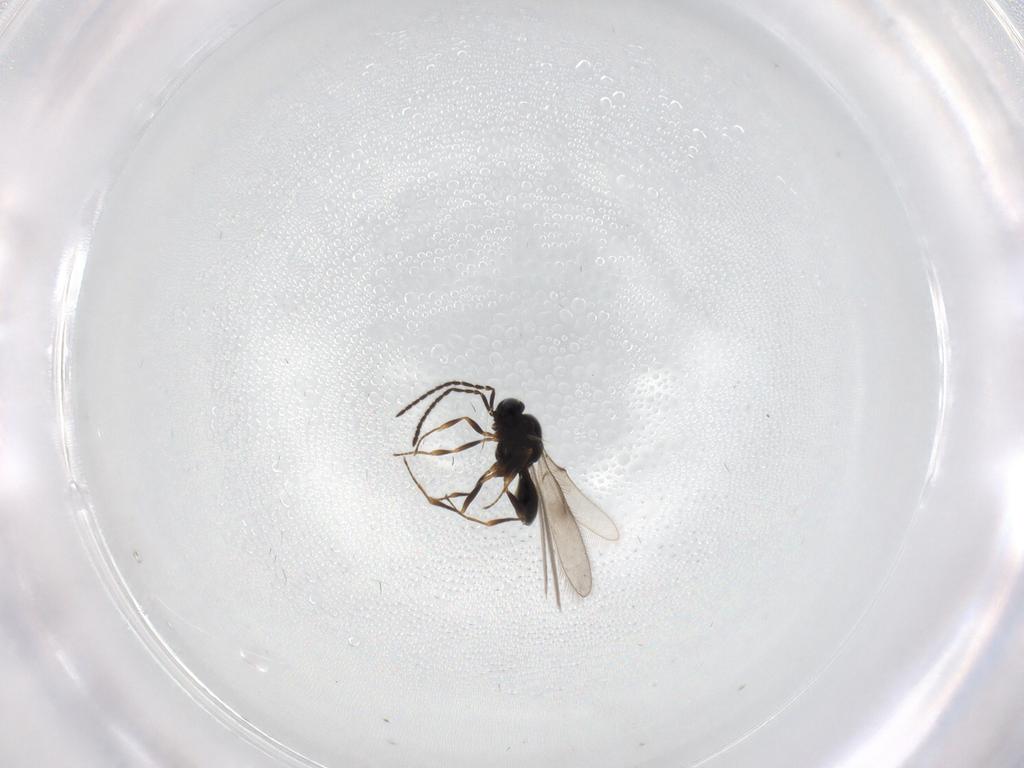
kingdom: Animalia
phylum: Arthropoda
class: Insecta
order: Hymenoptera
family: Scelionidae
